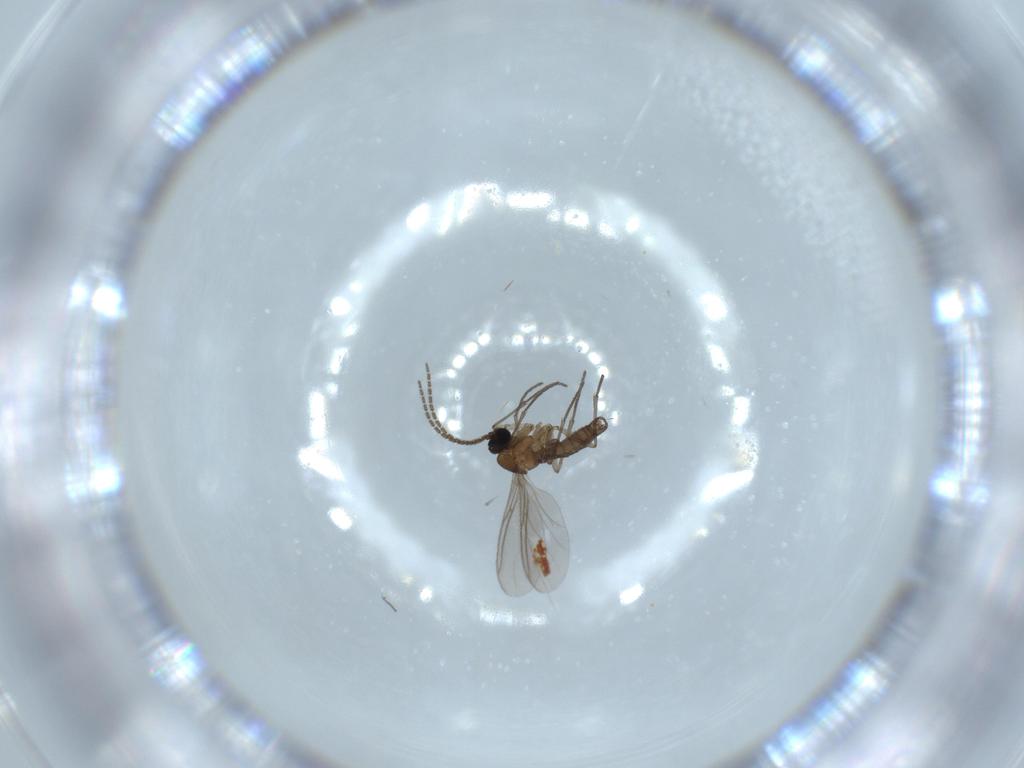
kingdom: Animalia
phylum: Arthropoda
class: Insecta
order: Diptera
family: Sciaridae
